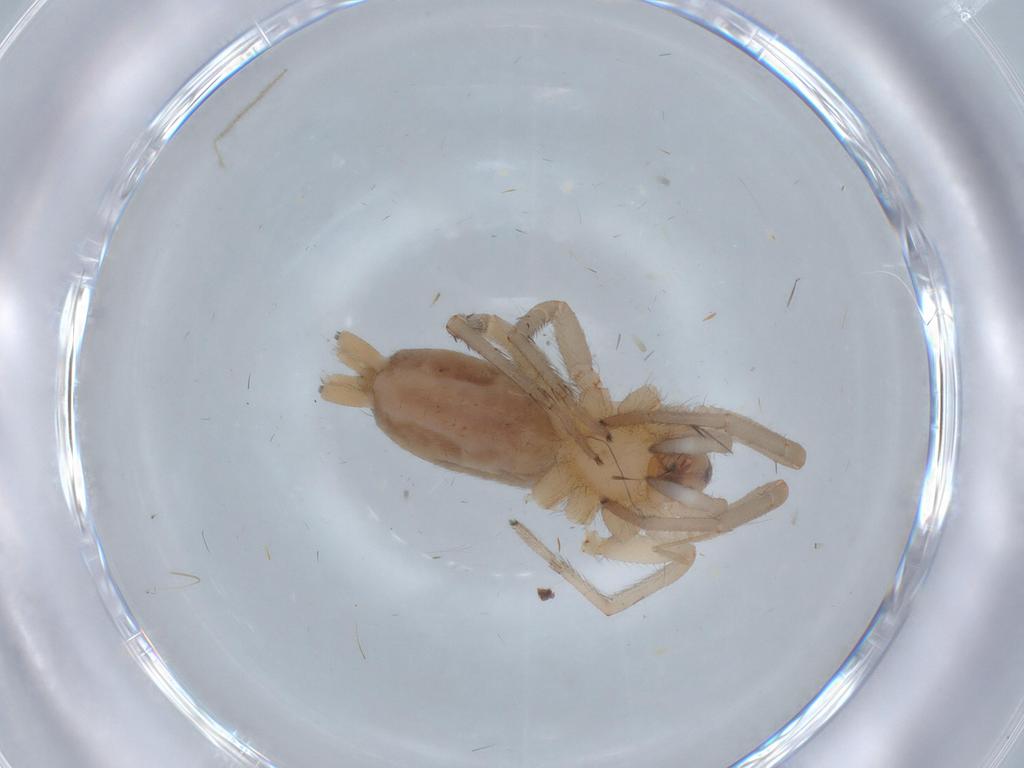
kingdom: Animalia
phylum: Arthropoda
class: Arachnida
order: Araneae
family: Gnaphosidae
